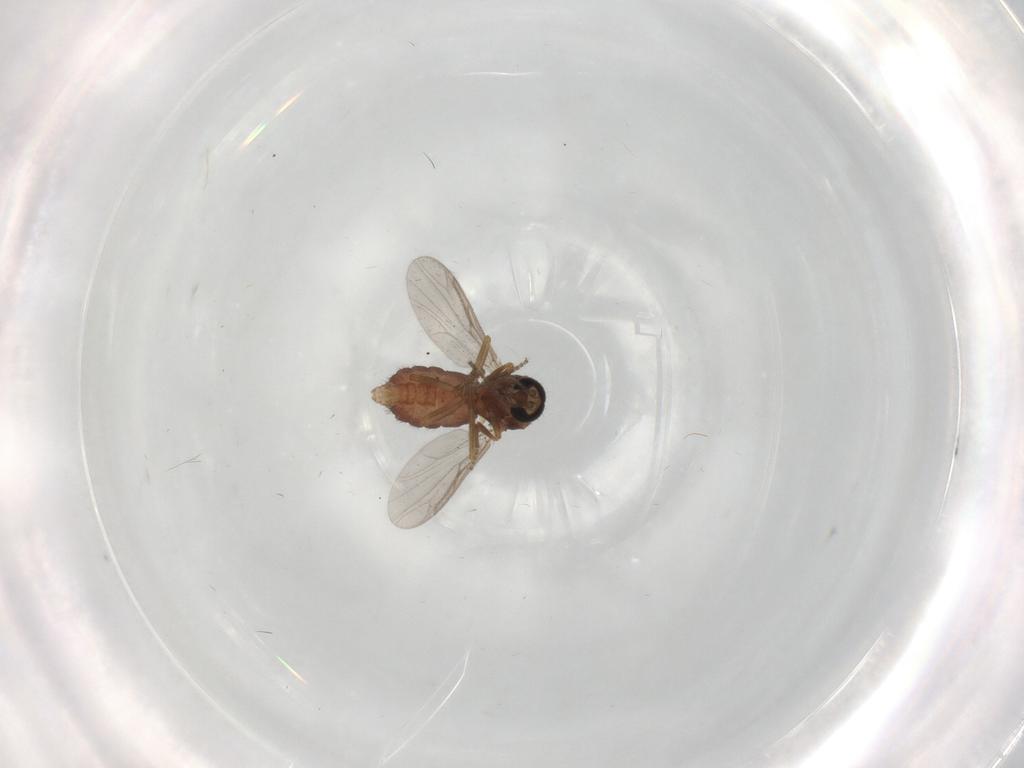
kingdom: Animalia
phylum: Arthropoda
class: Insecta
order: Diptera
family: Ceratopogonidae
